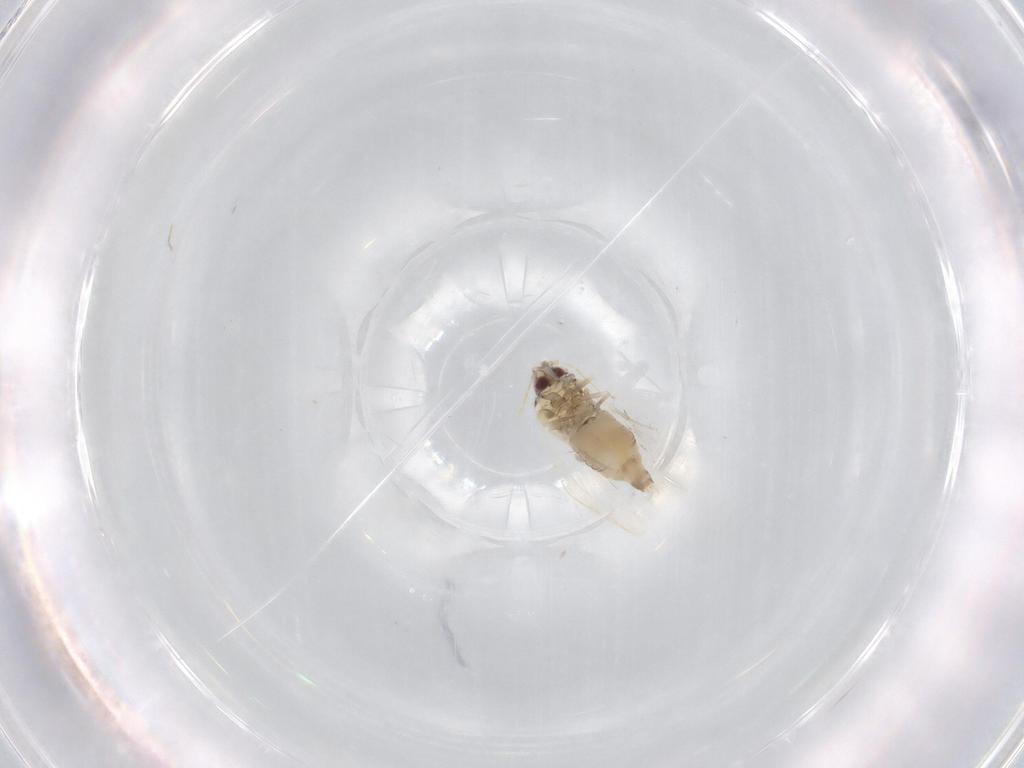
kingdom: Animalia
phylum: Arthropoda
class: Insecta
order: Hemiptera
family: Aleyrodidae
